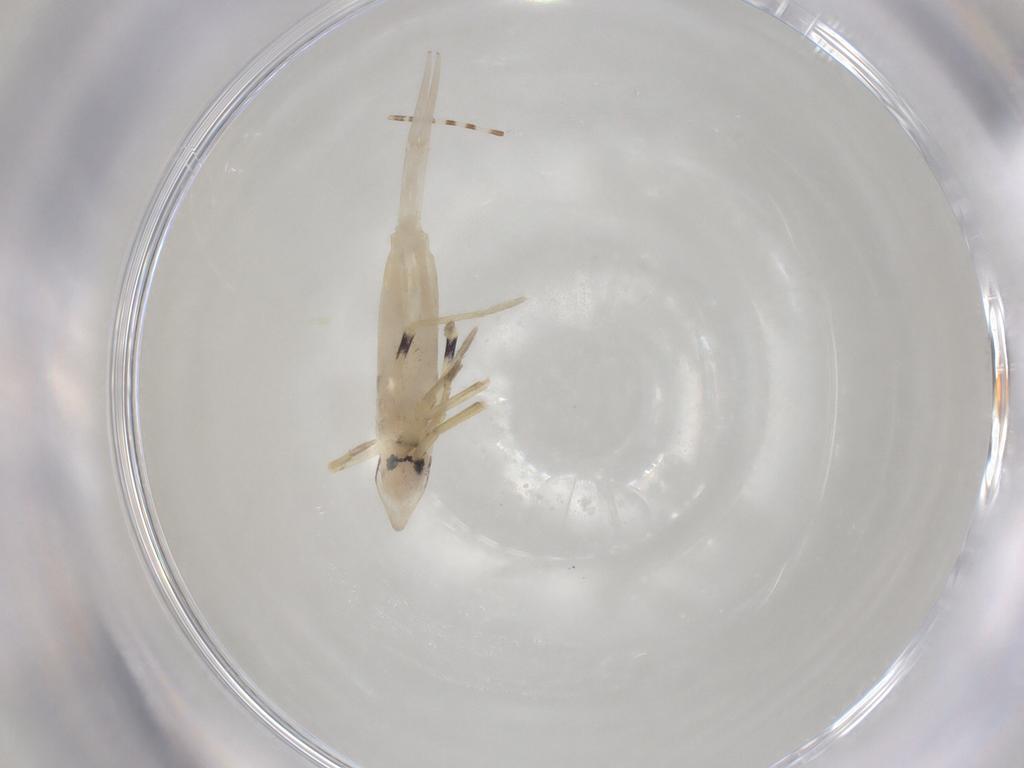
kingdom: Animalia
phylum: Arthropoda
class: Collembola
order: Entomobryomorpha
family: Entomobryidae
